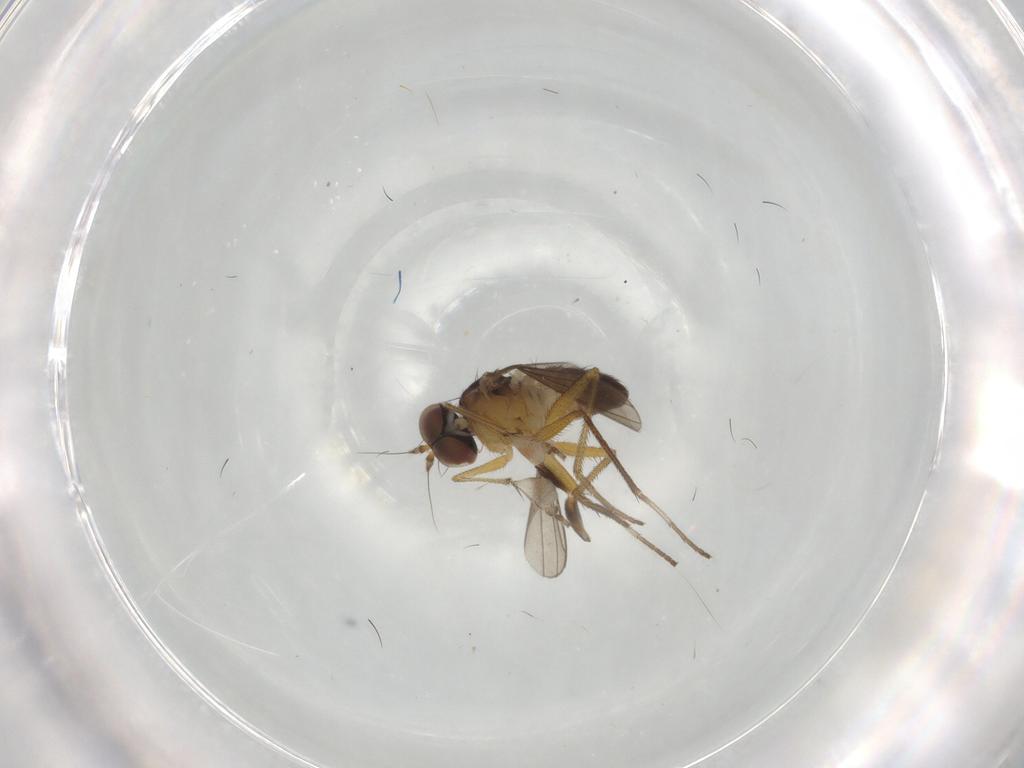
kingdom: Animalia
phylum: Arthropoda
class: Insecta
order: Diptera
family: Dolichopodidae
